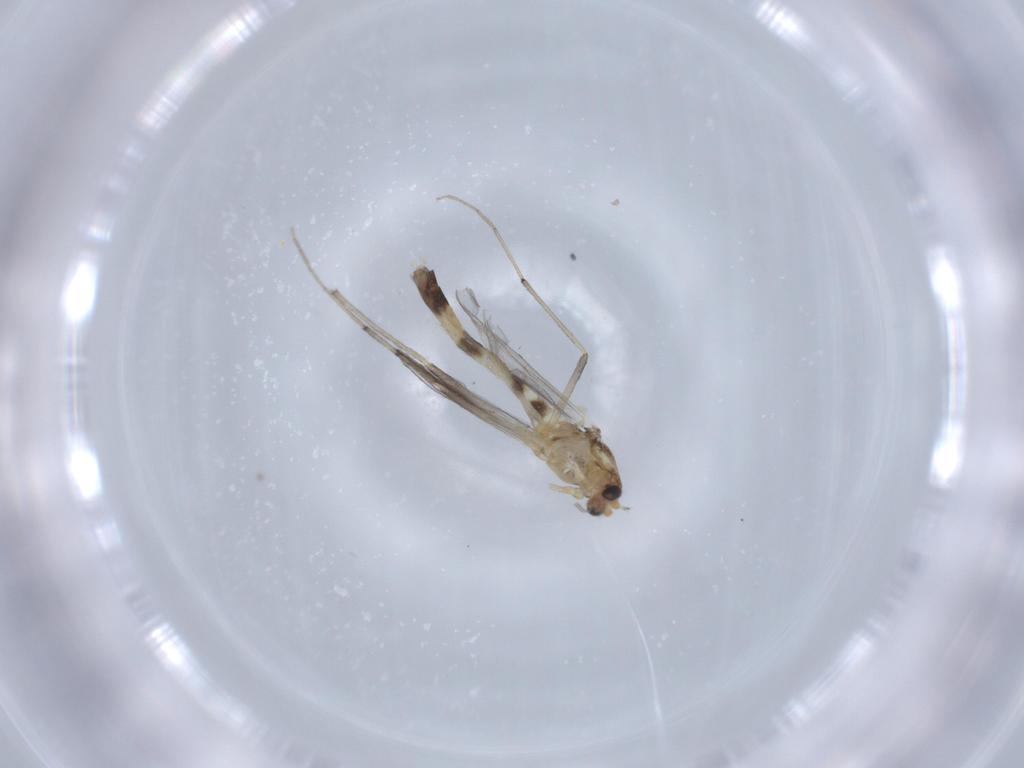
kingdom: Animalia
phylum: Arthropoda
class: Insecta
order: Diptera
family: Chironomidae
